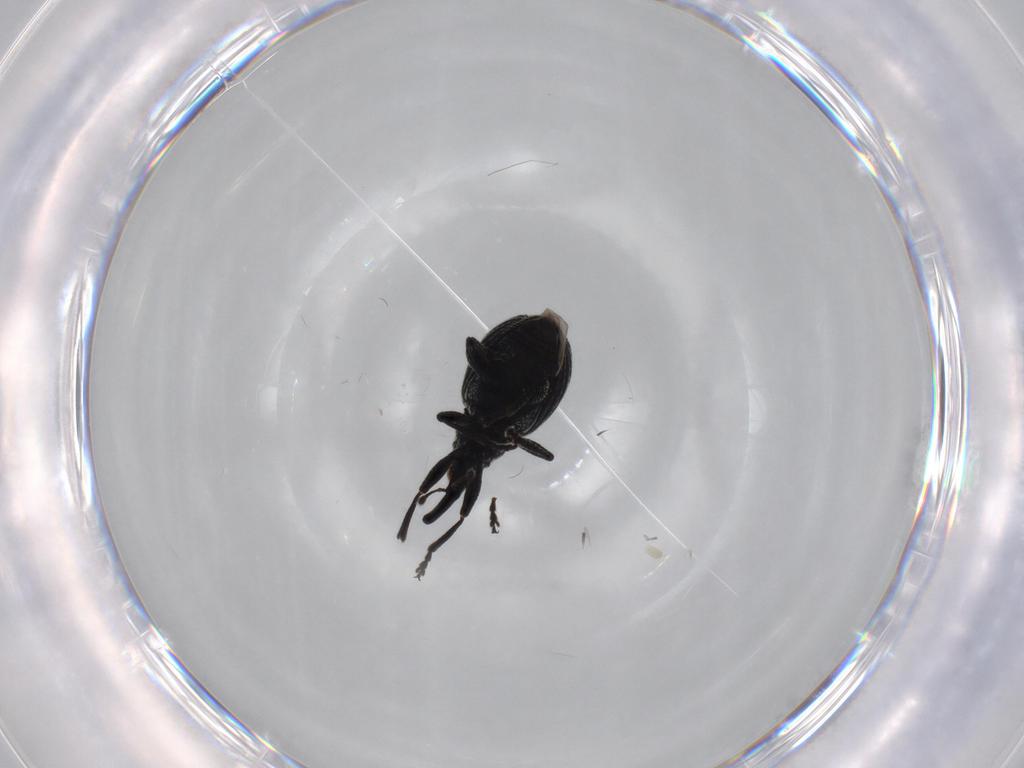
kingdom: Animalia
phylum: Arthropoda
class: Insecta
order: Coleoptera
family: Brentidae
